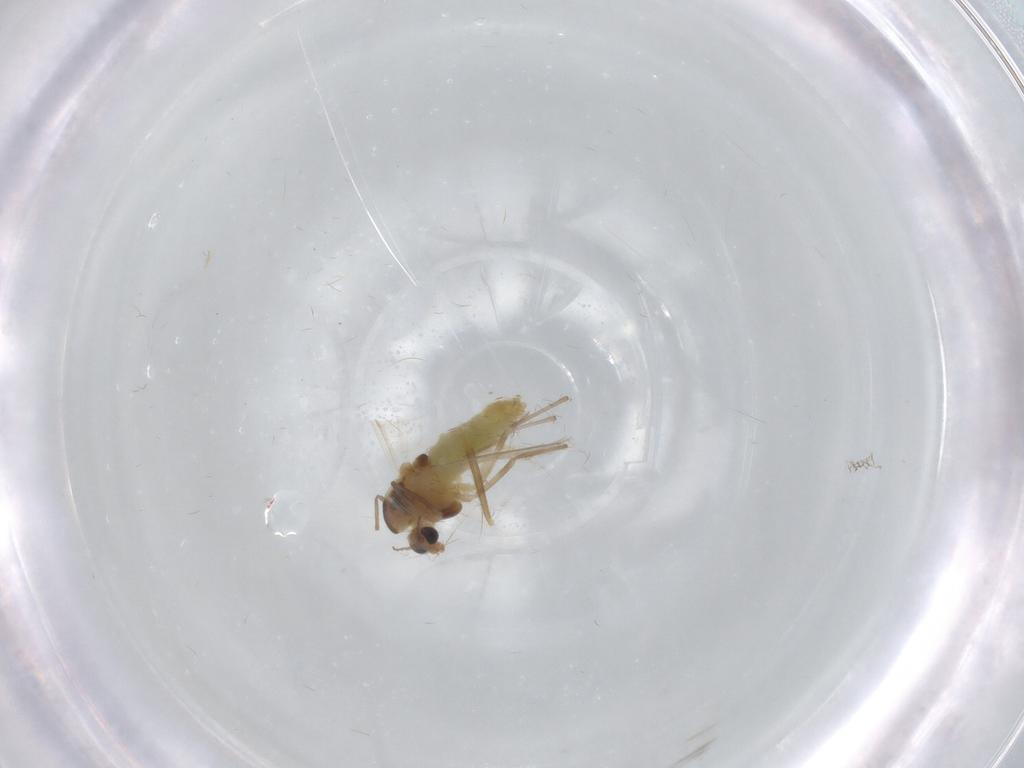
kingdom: Animalia
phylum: Arthropoda
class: Insecta
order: Diptera
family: Chironomidae
